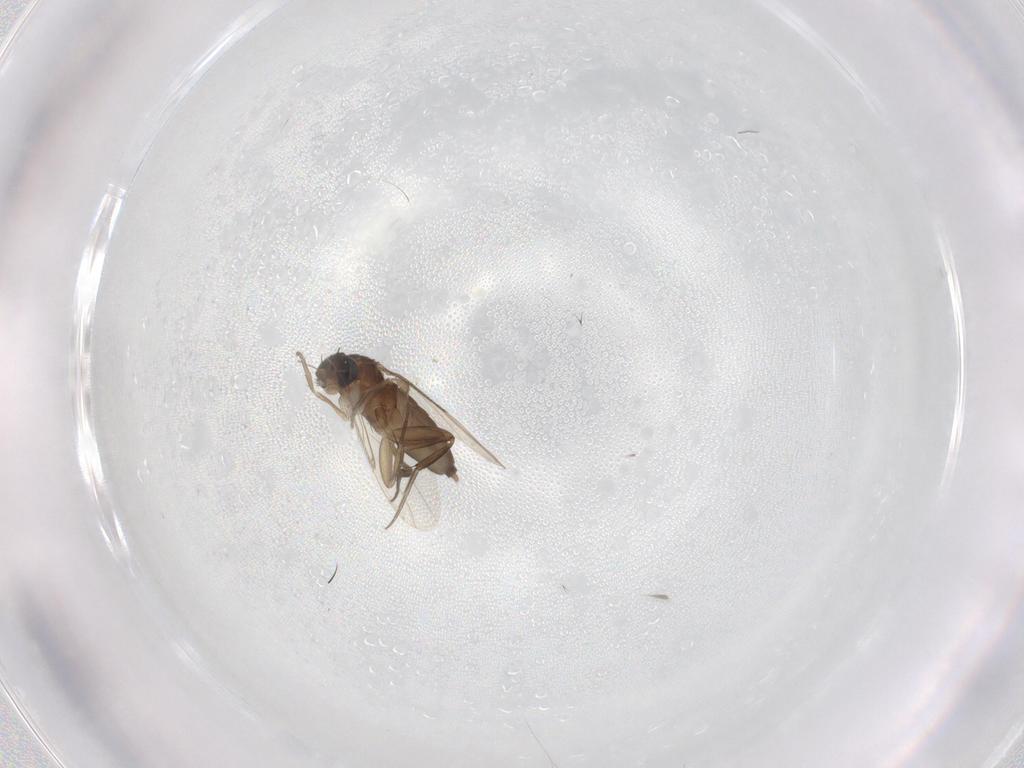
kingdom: Animalia
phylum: Arthropoda
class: Insecta
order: Diptera
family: Phoridae
